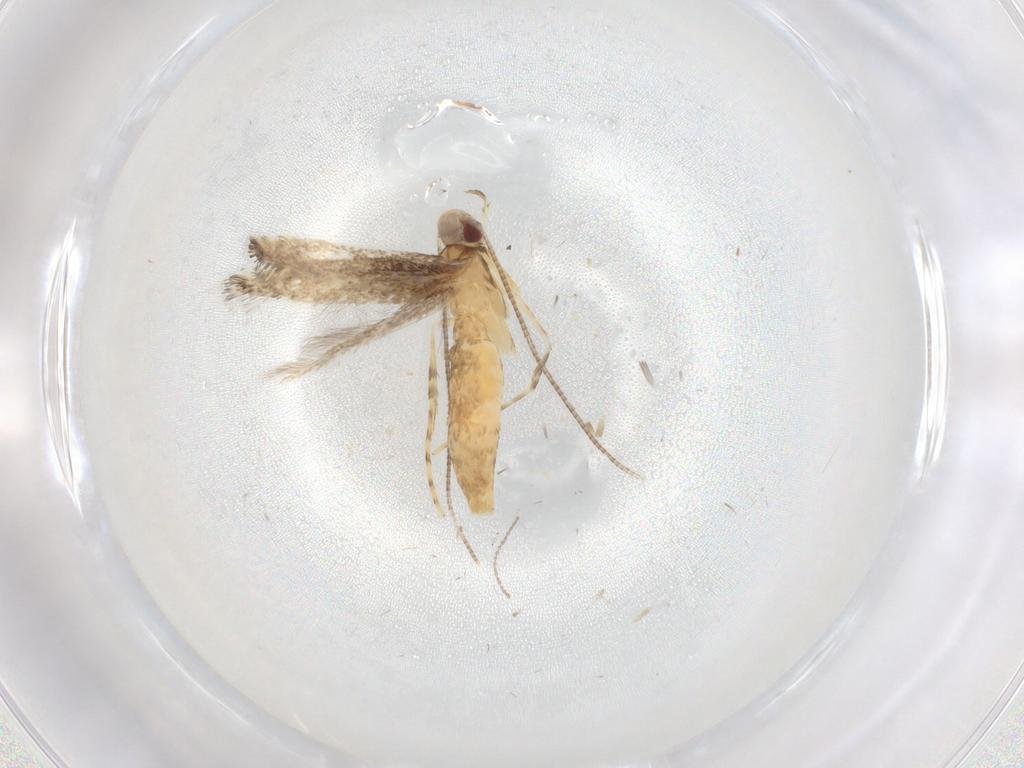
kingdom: Animalia
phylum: Arthropoda
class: Insecta
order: Lepidoptera
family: Gracillariidae
